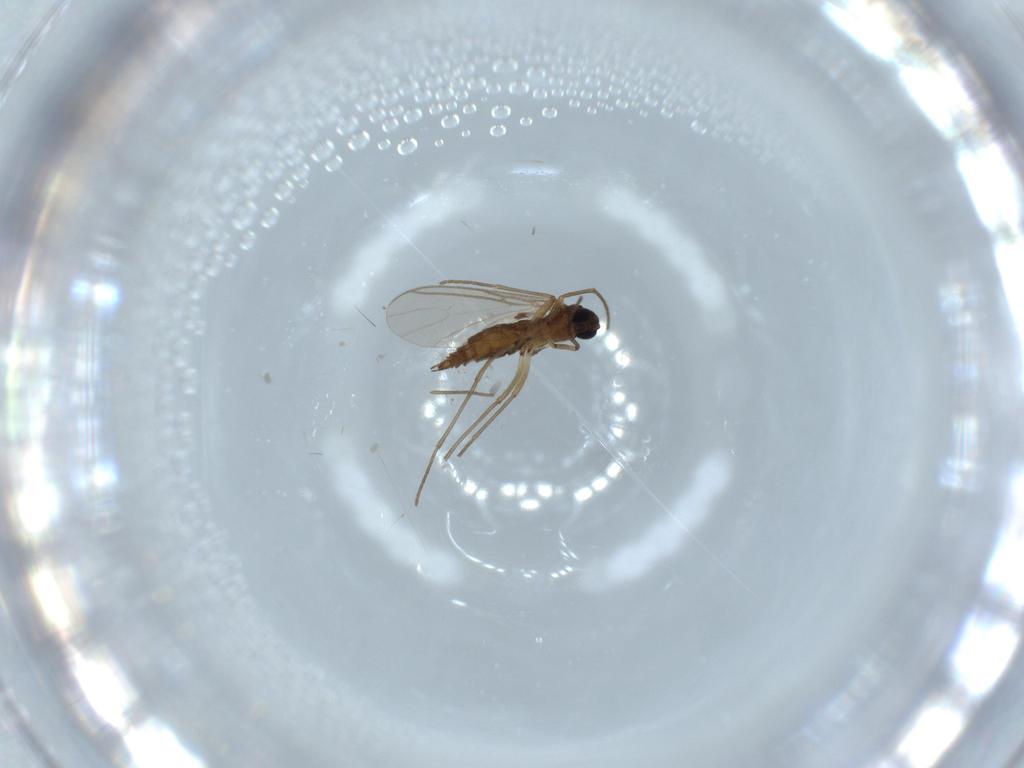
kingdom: Animalia
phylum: Arthropoda
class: Insecta
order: Diptera
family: Sciaridae
